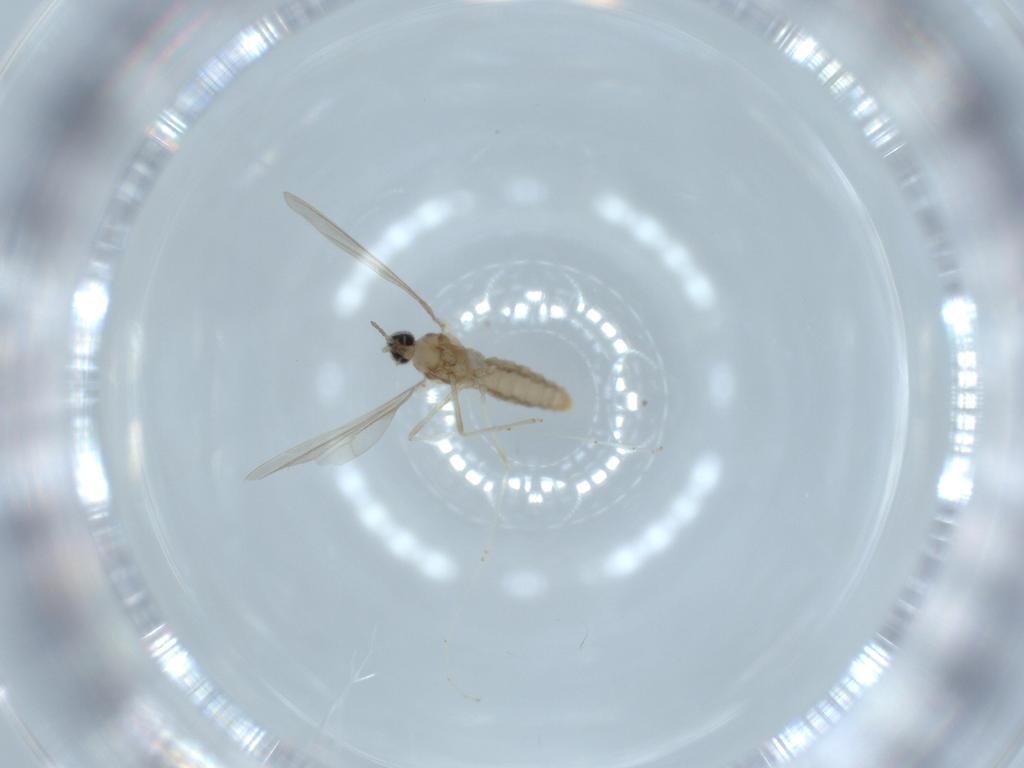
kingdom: Animalia
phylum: Arthropoda
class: Insecta
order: Diptera
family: Cecidomyiidae
